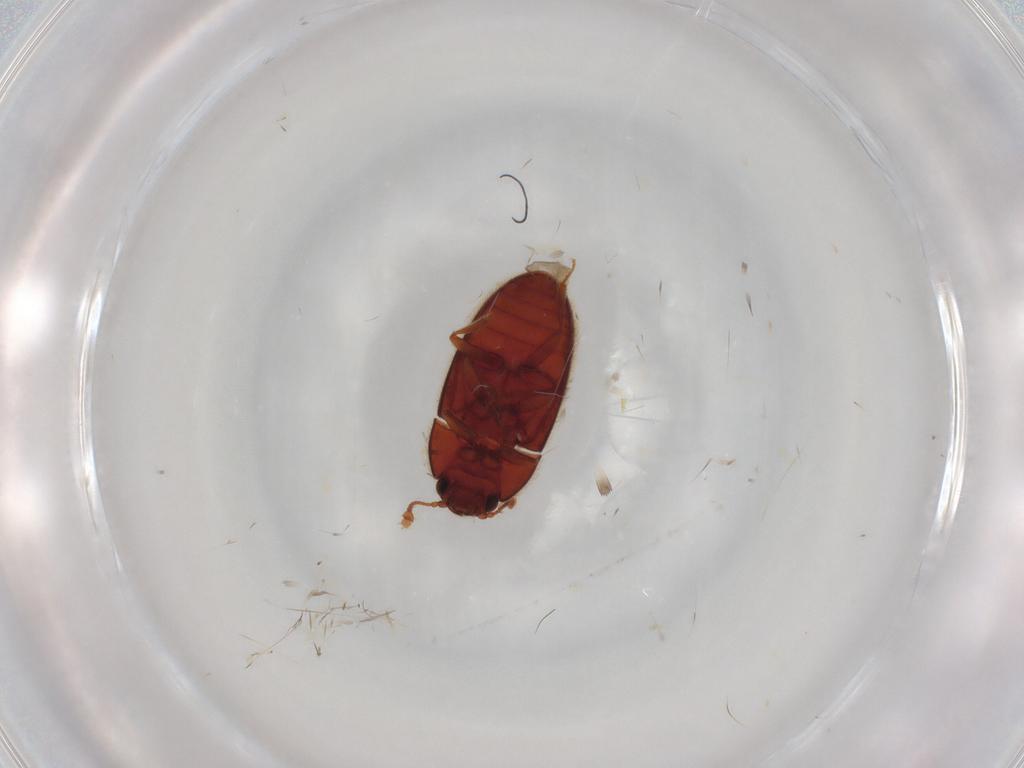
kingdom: Animalia
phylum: Arthropoda
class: Insecta
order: Coleoptera
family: Biphyllidae
